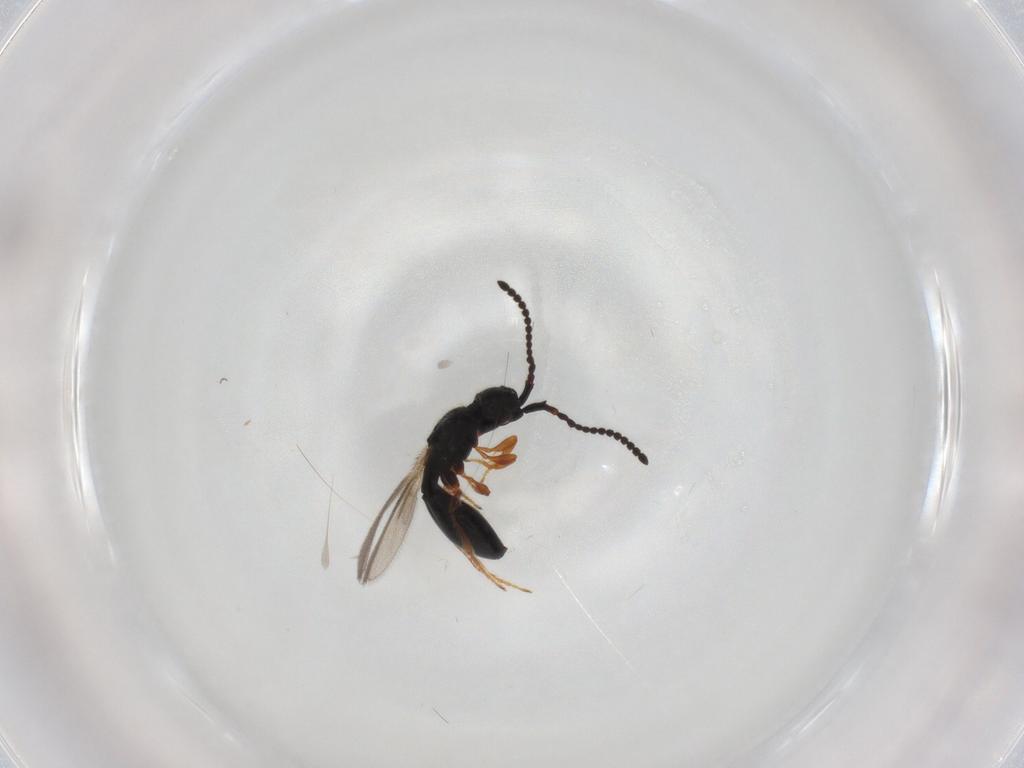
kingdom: Animalia
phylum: Arthropoda
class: Insecta
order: Hymenoptera
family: Diapriidae
